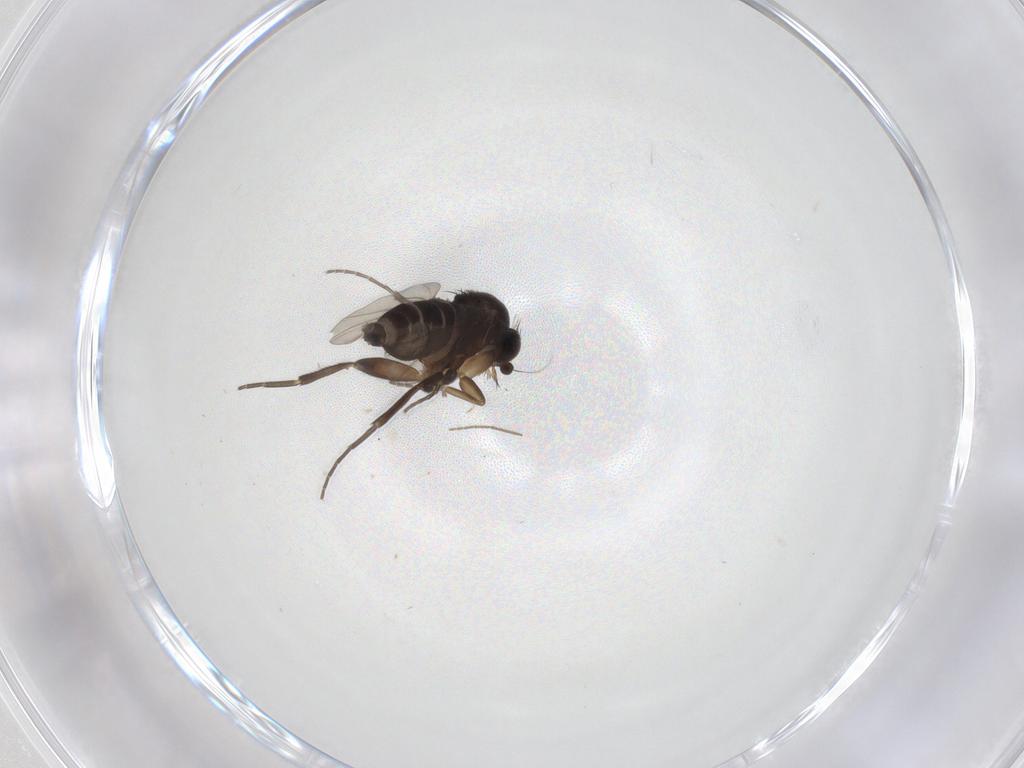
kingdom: Animalia
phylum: Arthropoda
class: Insecta
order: Diptera
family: Phoridae
